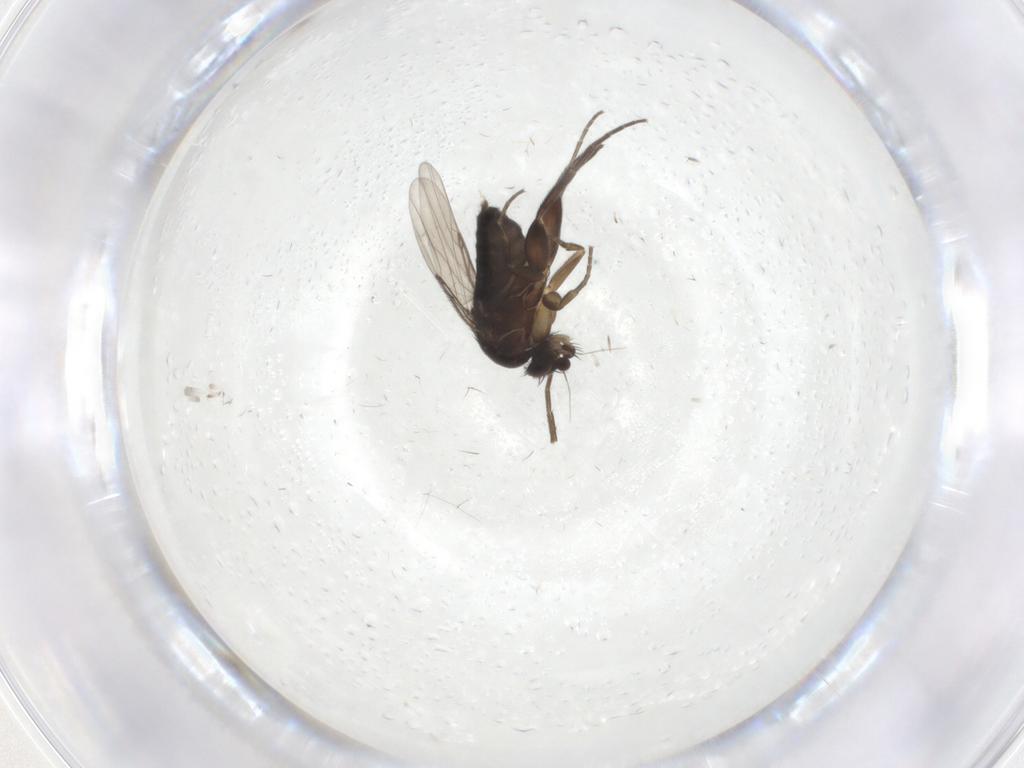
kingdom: Animalia
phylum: Arthropoda
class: Insecta
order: Diptera
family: Phoridae
